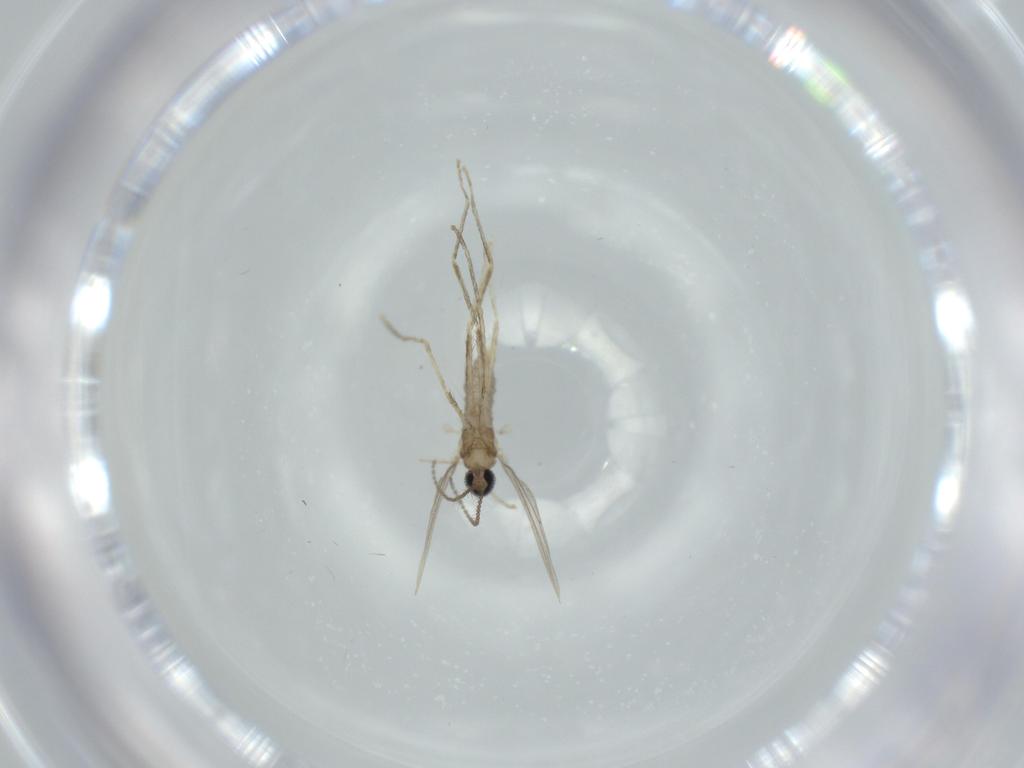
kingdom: Animalia
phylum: Arthropoda
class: Insecta
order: Diptera
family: Cecidomyiidae
